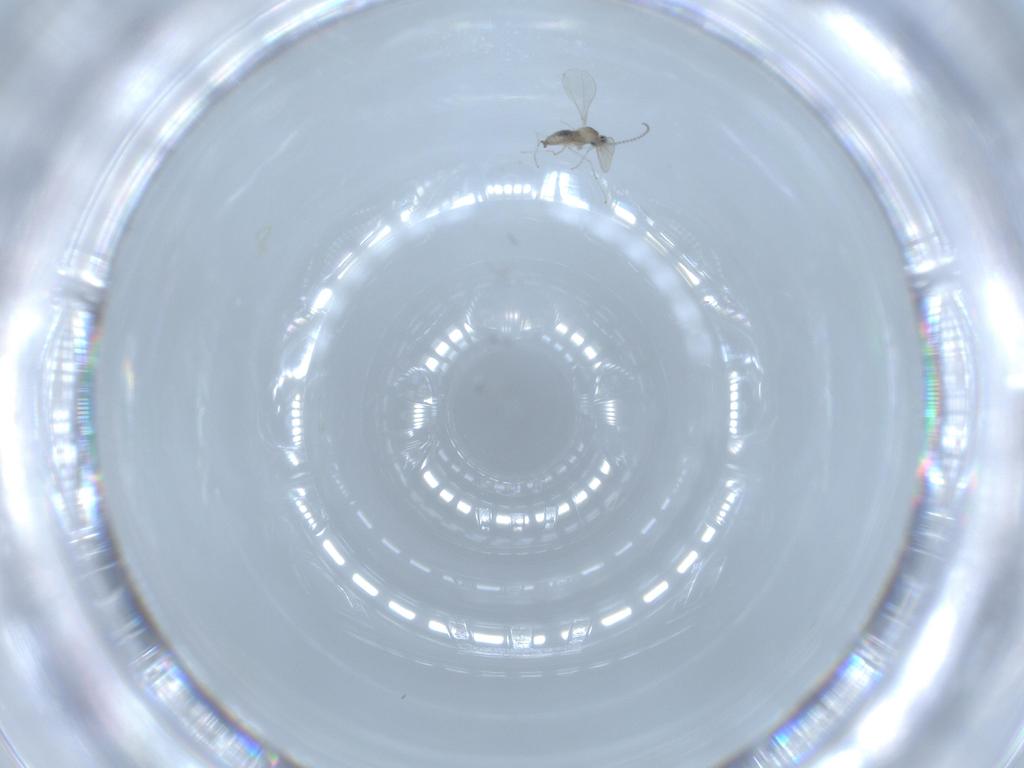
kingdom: Animalia
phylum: Arthropoda
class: Insecta
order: Diptera
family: Cecidomyiidae
